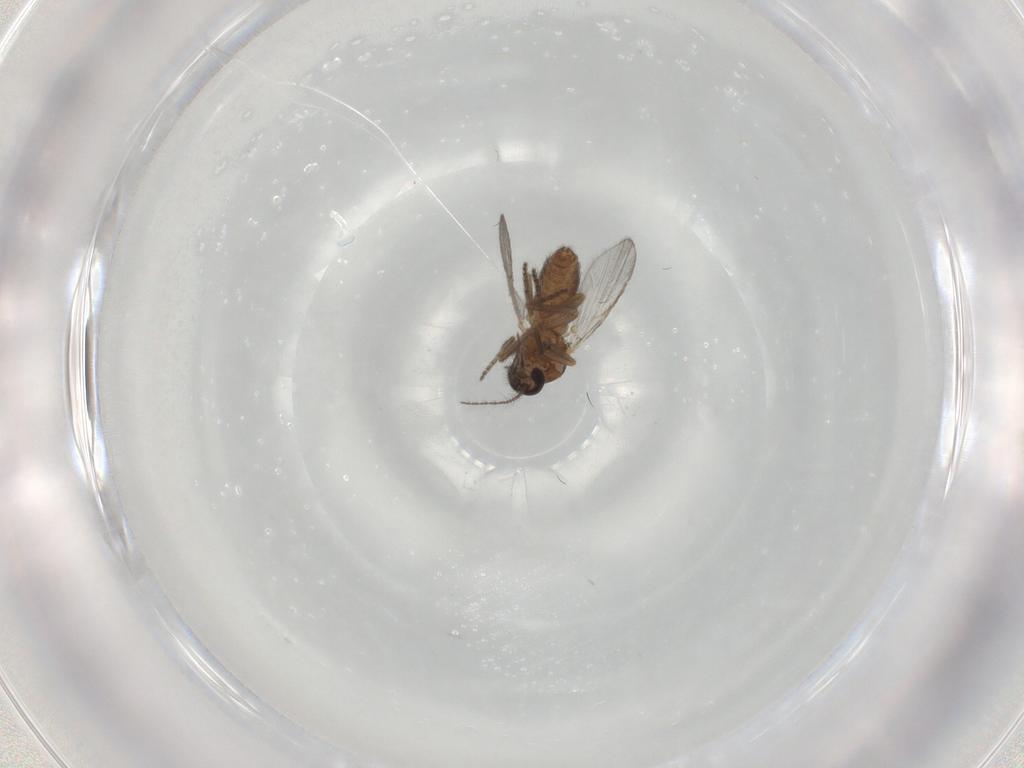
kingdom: Animalia
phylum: Arthropoda
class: Insecta
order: Diptera
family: Ceratopogonidae
